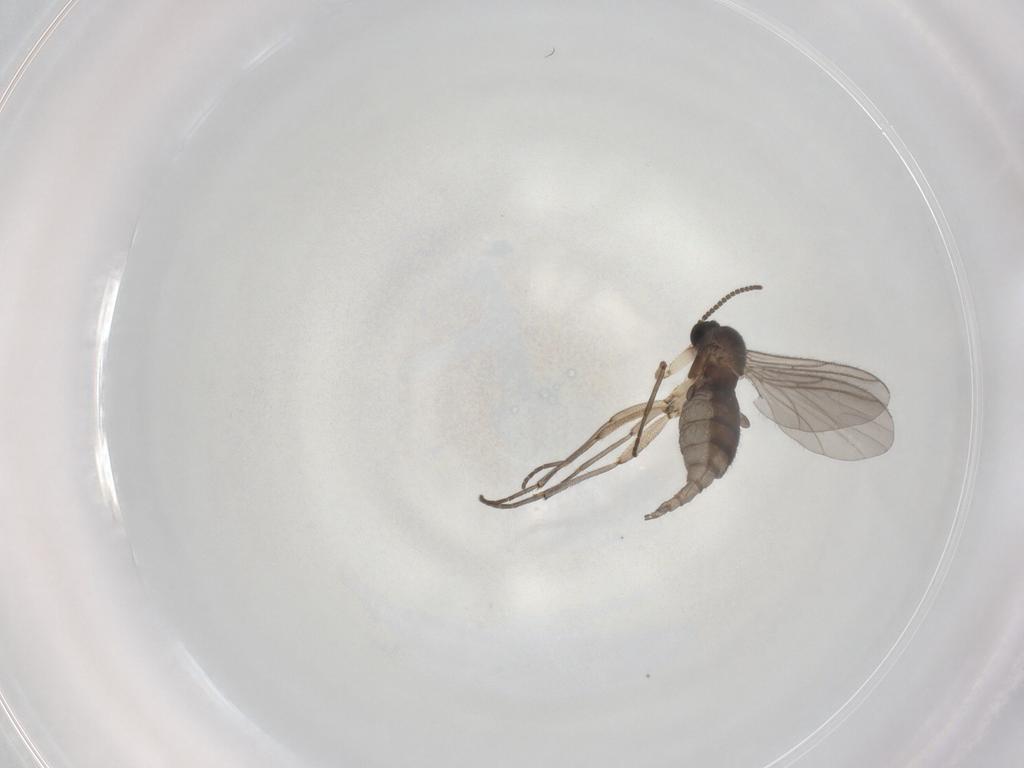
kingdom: Animalia
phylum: Arthropoda
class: Insecta
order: Diptera
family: Sciaridae
